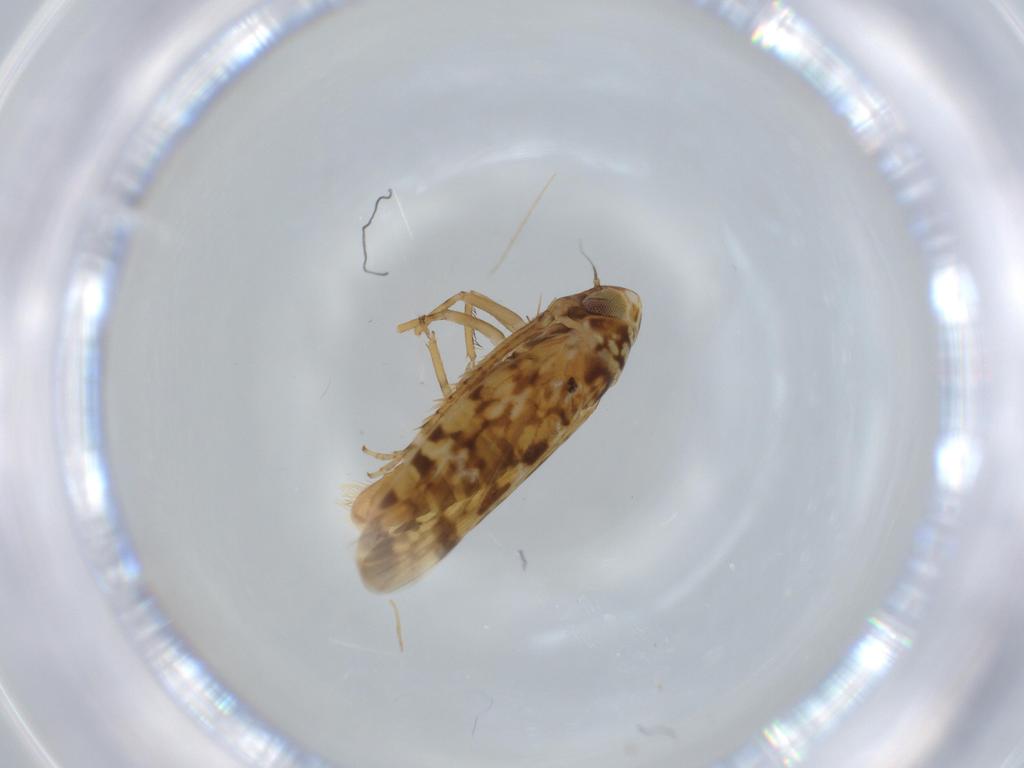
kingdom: Animalia
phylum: Arthropoda
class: Insecta
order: Hemiptera
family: Cicadellidae
